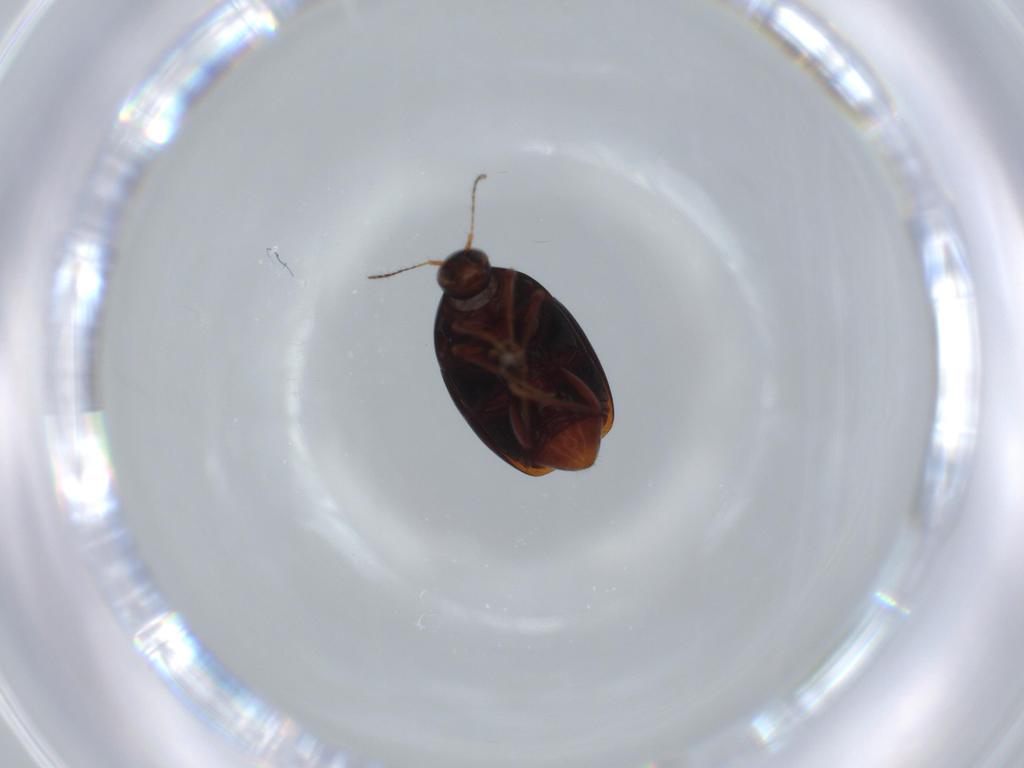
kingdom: Animalia
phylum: Arthropoda
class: Insecta
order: Coleoptera
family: Staphylinidae
